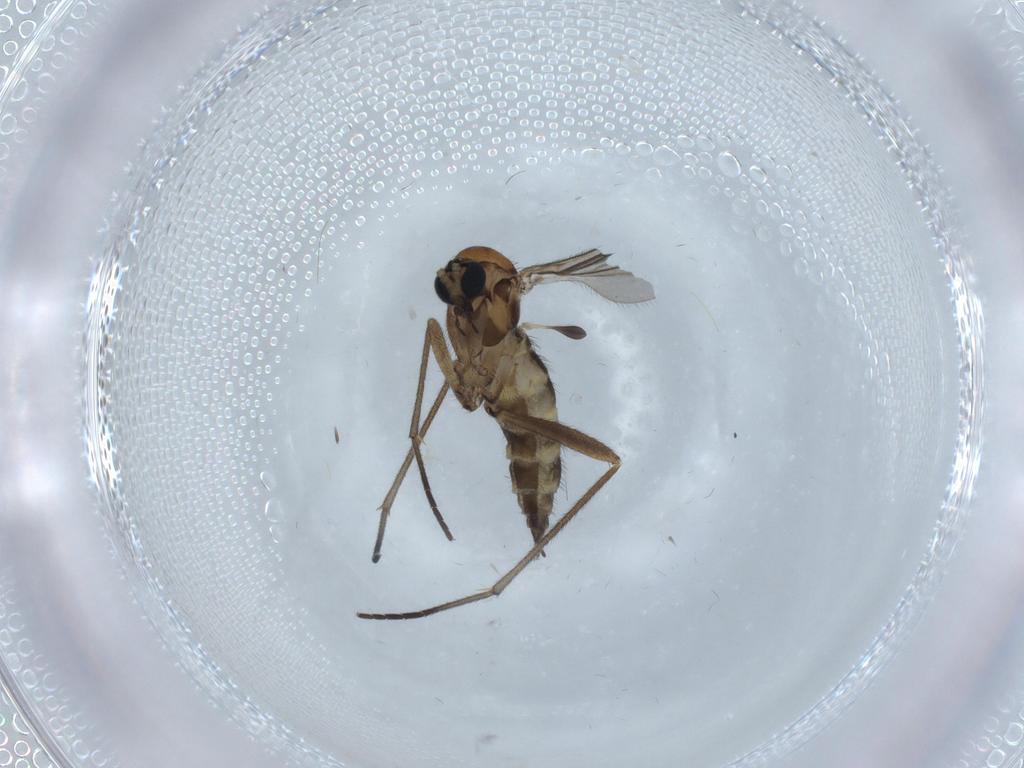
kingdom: Animalia
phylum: Arthropoda
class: Insecta
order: Diptera
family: Sciaridae
